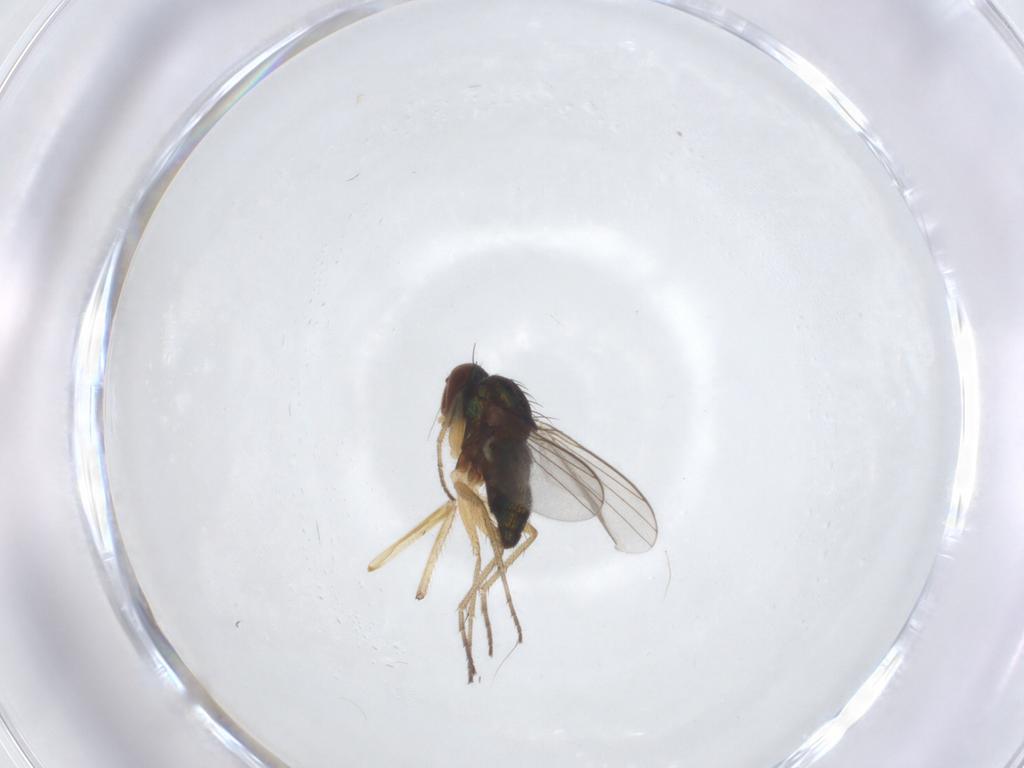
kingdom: Animalia
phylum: Arthropoda
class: Insecta
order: Diptera
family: Chironomidae
